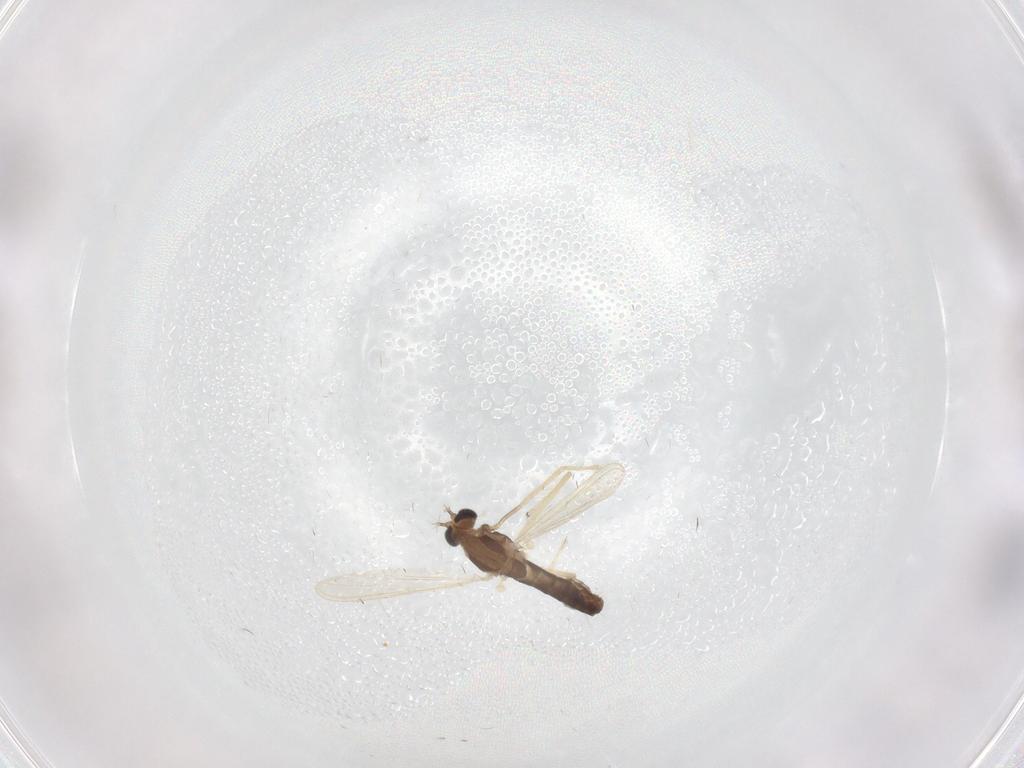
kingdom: Animalia
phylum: Arthropoda
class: Insecta
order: Diptera
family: Chironomidae
